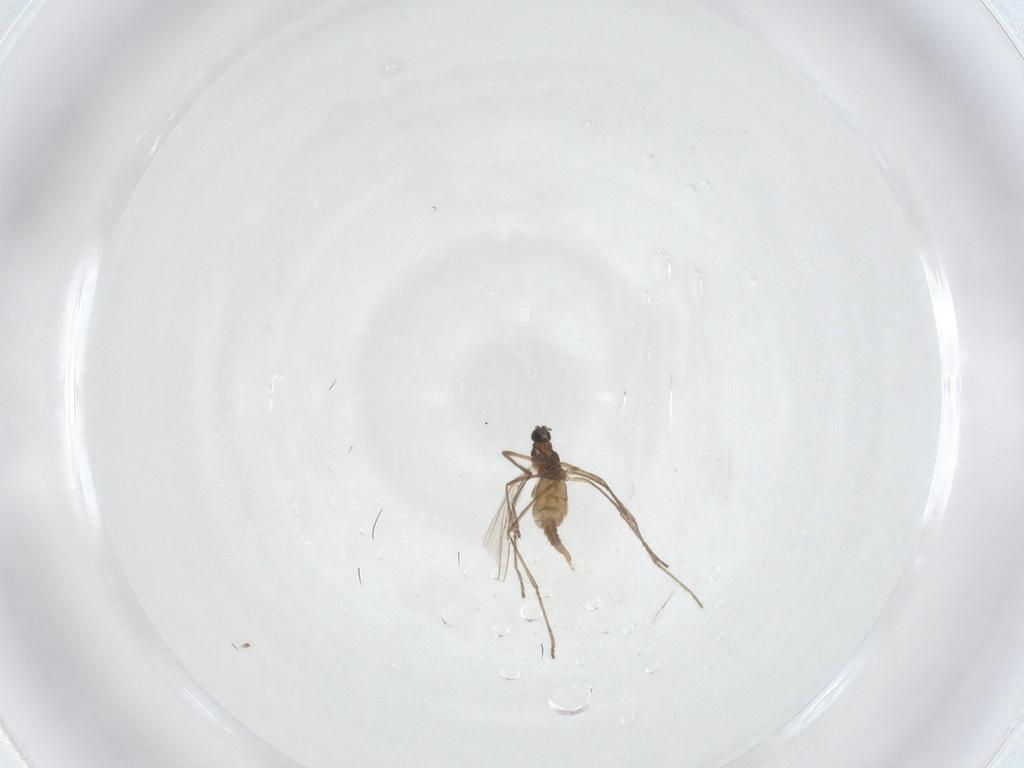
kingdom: Animalia
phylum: Arthropoda
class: Insecta
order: Diptera
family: Cecidomyiidae
